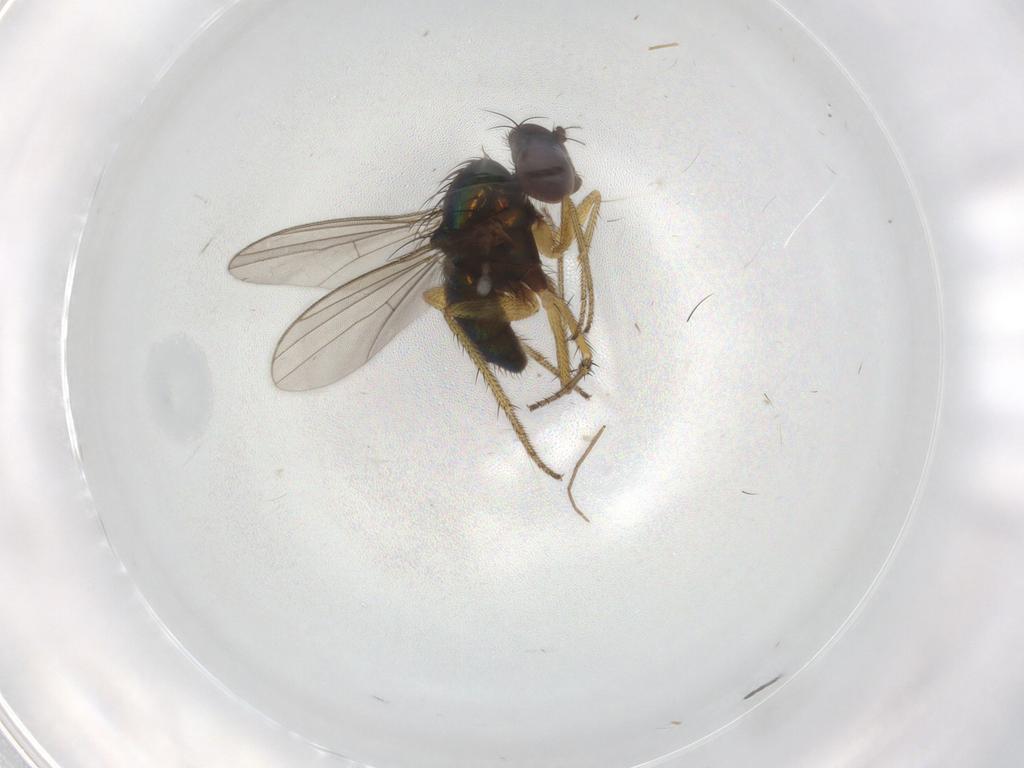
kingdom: Animalia
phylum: Arthropoda
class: Insecta
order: Diptera
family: Sciaridae
